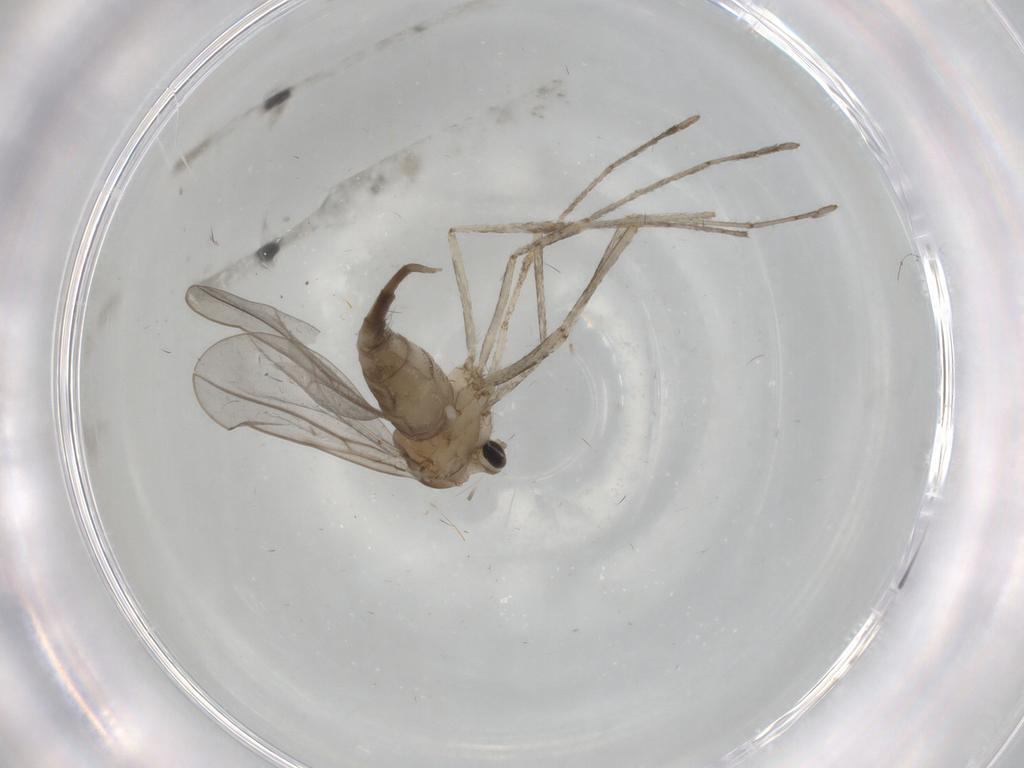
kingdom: Animalia
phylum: Arthropoda
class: Insecta
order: Diptera
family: Cecidomyiidae
